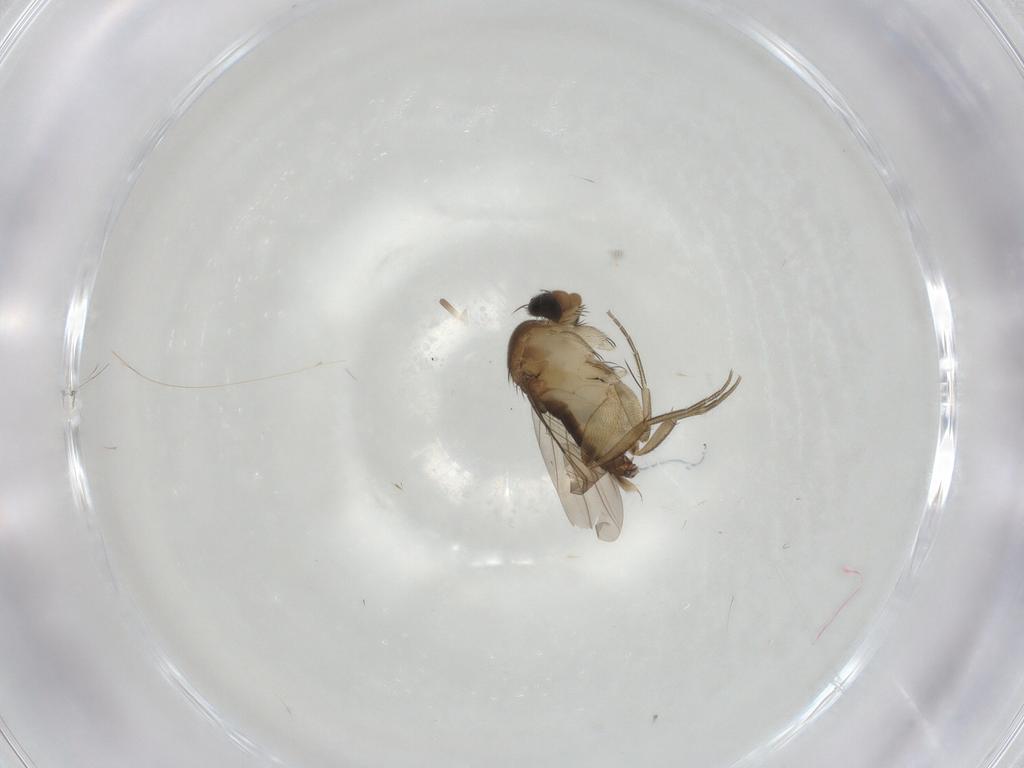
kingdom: Animalia
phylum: Arthropoda
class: Insecta
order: Diptera
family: Phoridae
